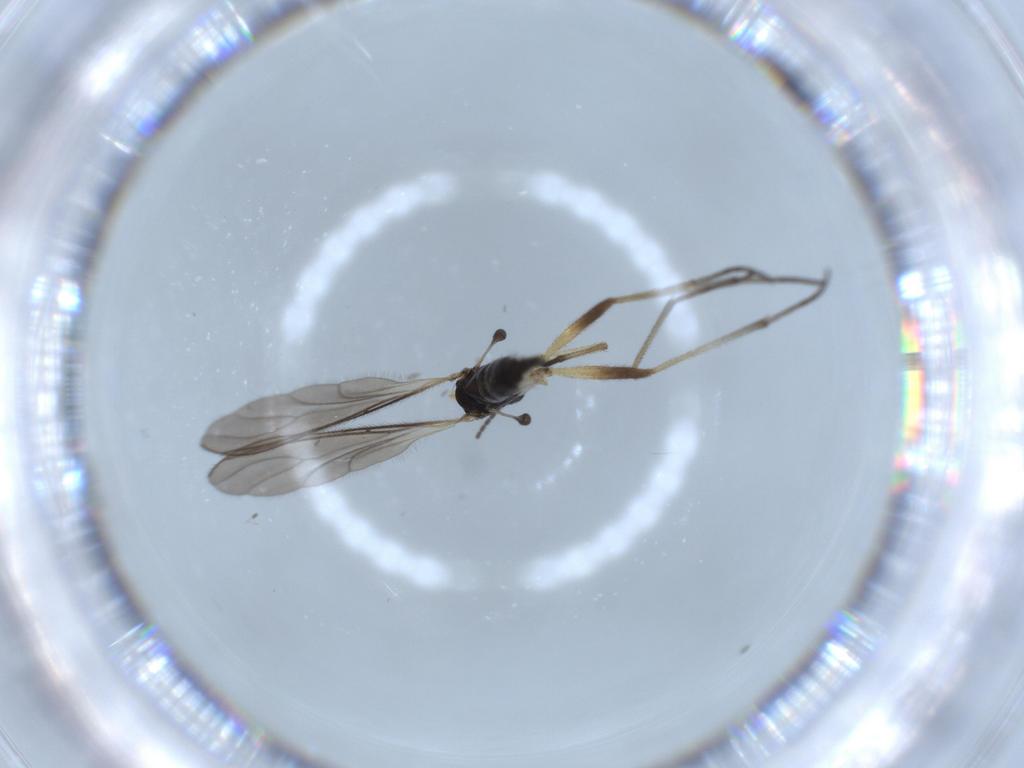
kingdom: Animalia
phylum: Arthropoda
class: Insecta
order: Diptera
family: Sciaridae
